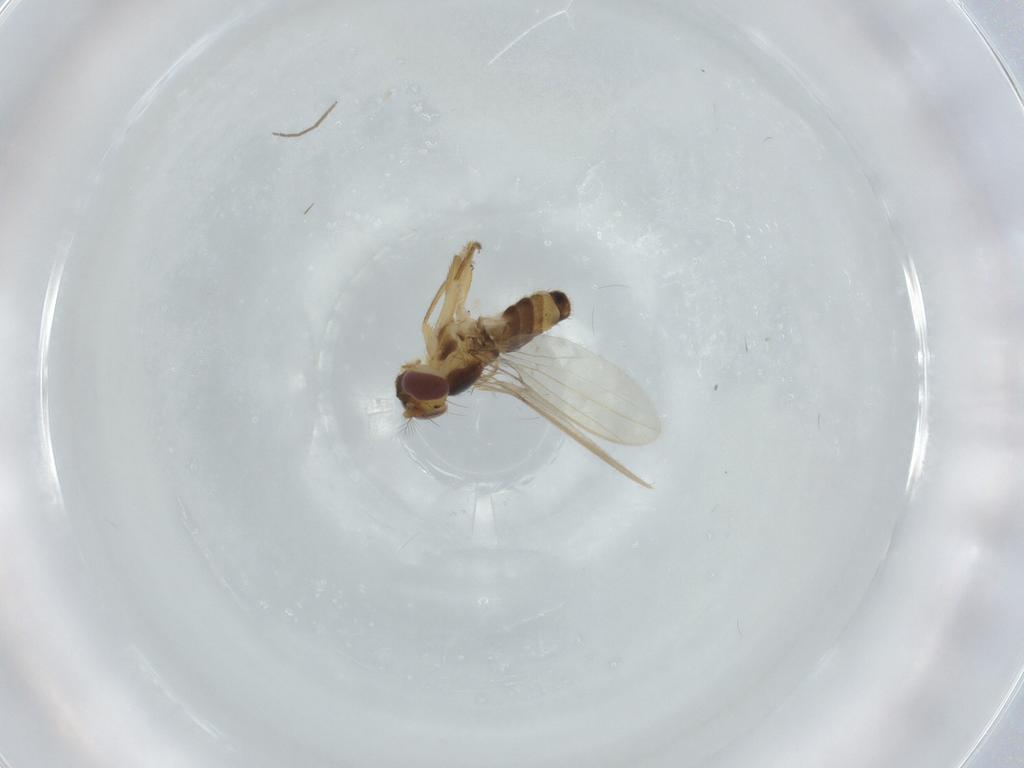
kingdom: Animalia
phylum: Arthropoda
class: Insecta
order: Diptera
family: Periscelididae
